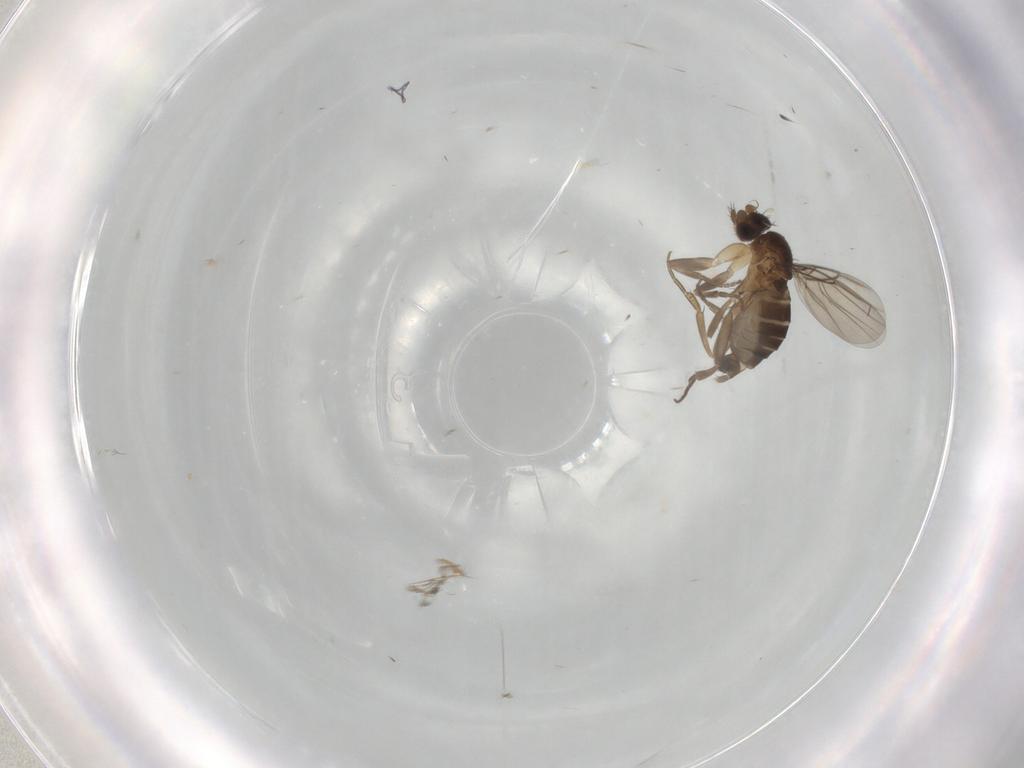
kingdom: Animalia
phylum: Arthropoda
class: Insecta
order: Diptera
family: Phoridae
